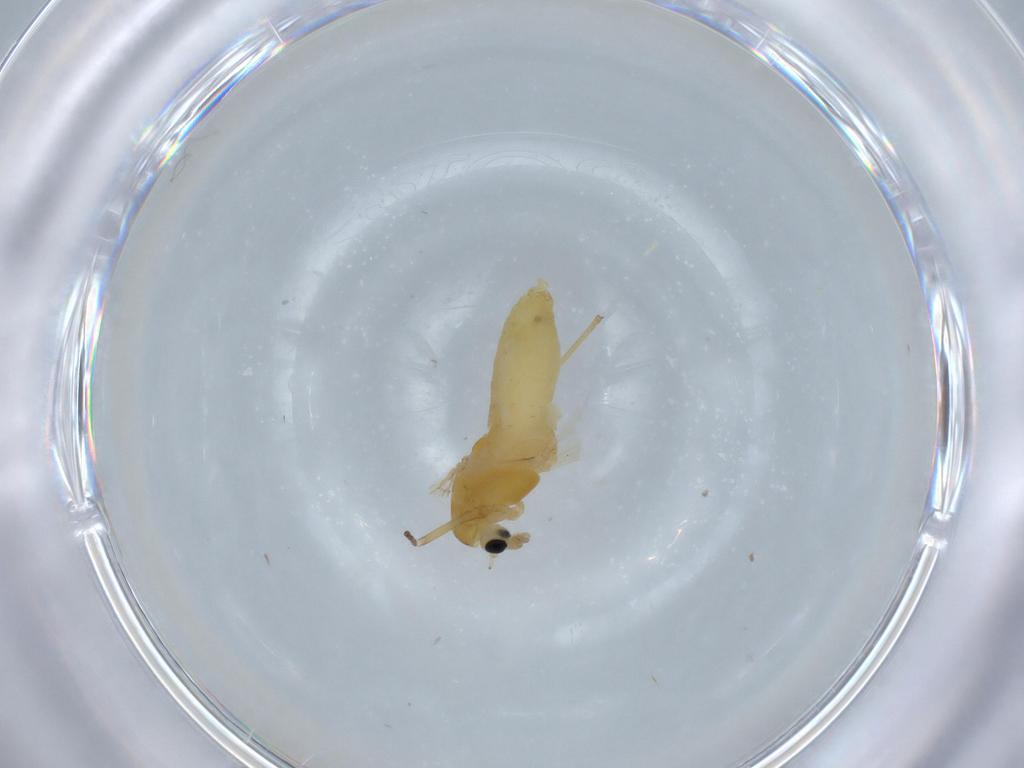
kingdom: Animalia
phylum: Arthropoda
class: Insecta
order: Diptera
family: Chironomidae
